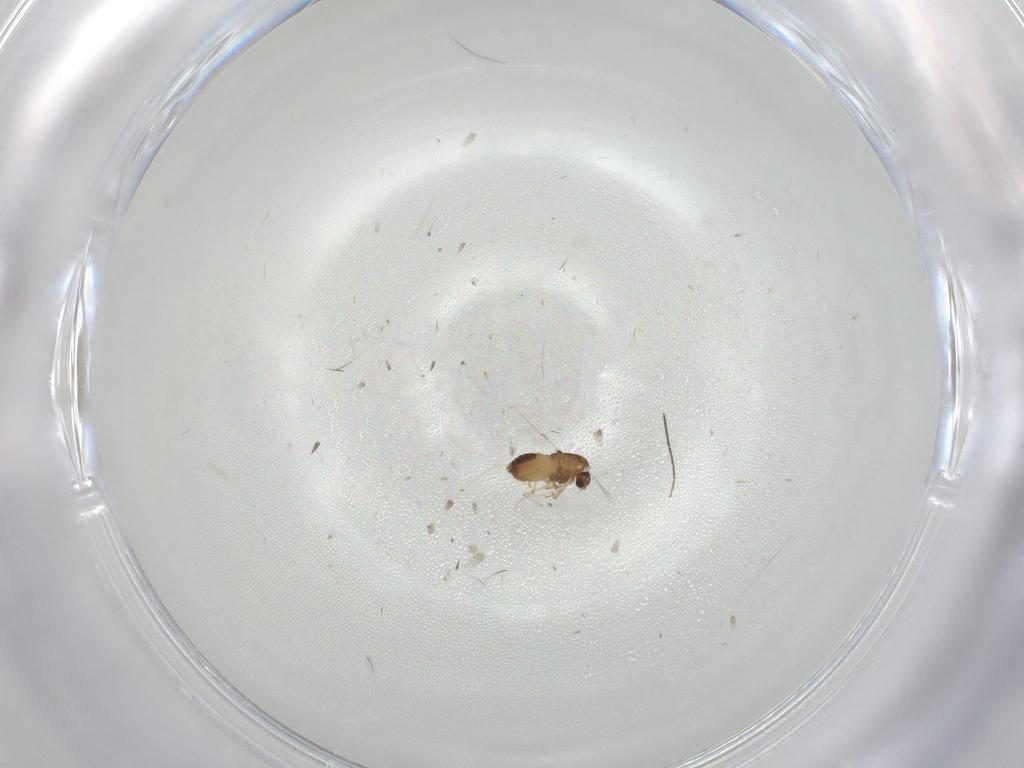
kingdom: Animalia
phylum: Arthropoda
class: Insecta
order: Diptera
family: Chironomidae
